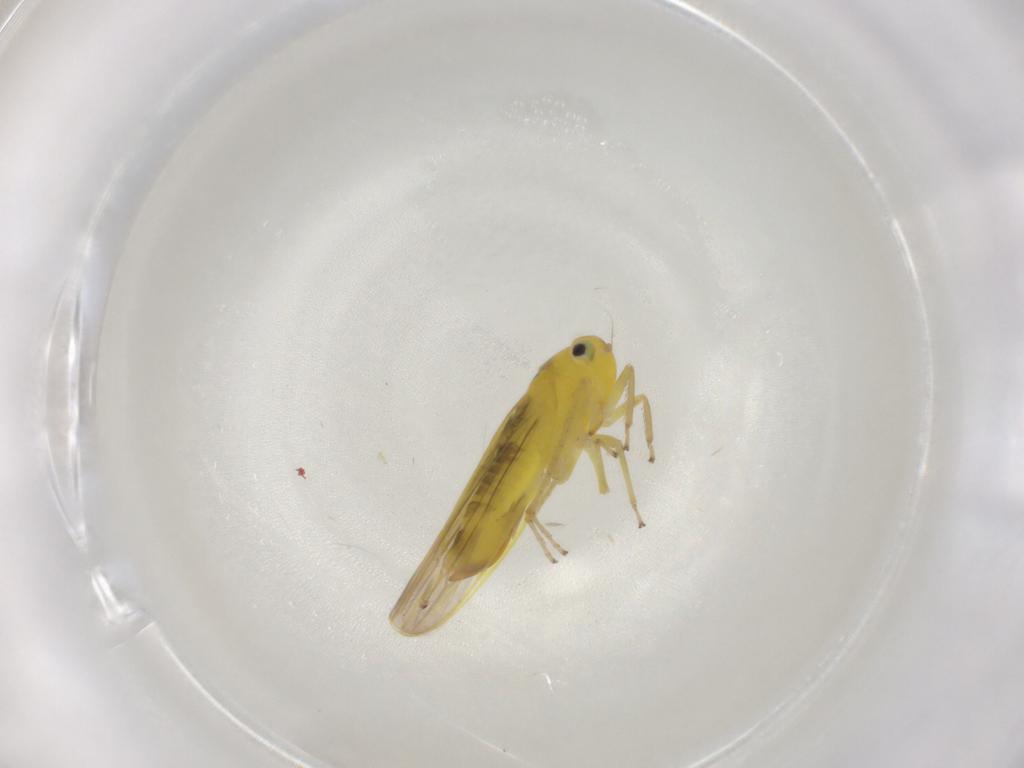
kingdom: Animalia
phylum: Arthropoda
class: Insecta
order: Hemiptera
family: Cicadellidae
